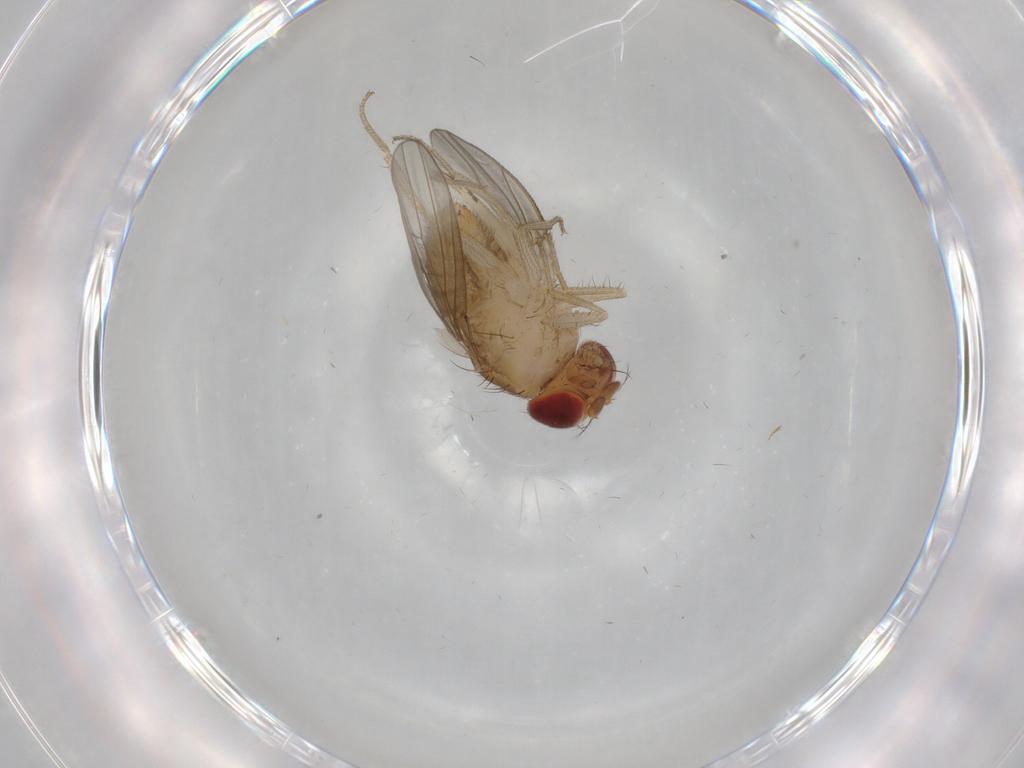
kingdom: Animalia
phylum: Arthropoda
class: Insecta
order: Diptera
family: Drosophilidae
